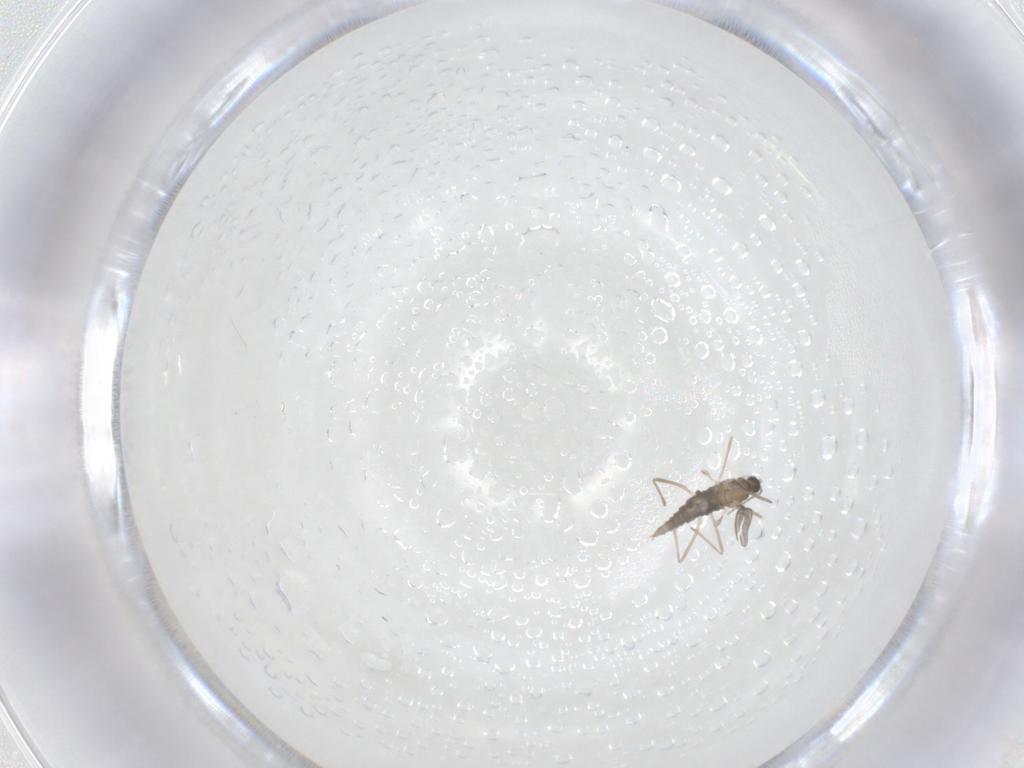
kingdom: Animalia
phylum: Arthropoda
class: Insecta
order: Diptera
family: Cecidomyiidae
